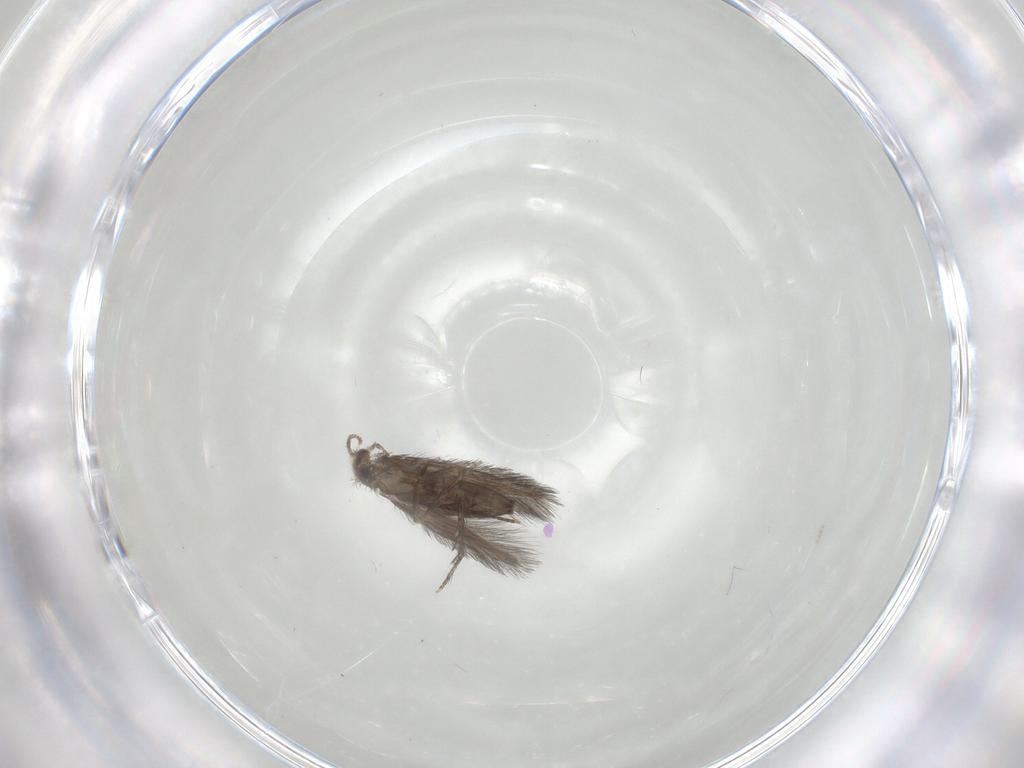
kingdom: Animalia
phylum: Arthropoda
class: Insecta
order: Trichoptera
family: Hydroptilidae
